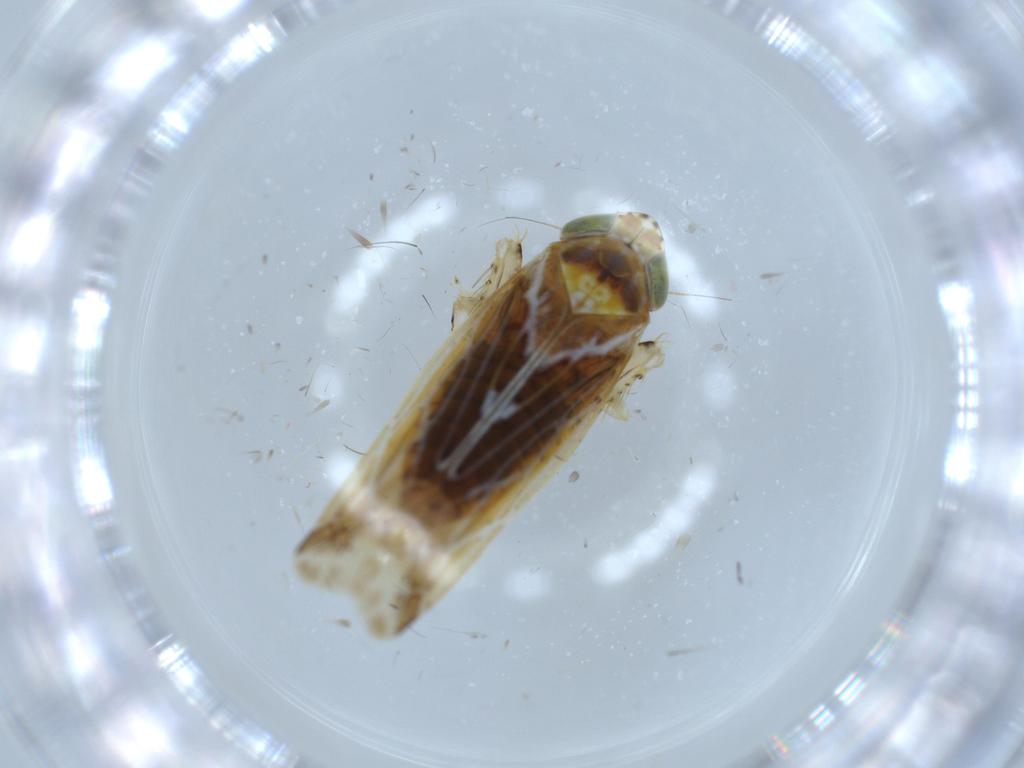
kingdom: Animalia
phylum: Arthropoda
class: Insecta
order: Hemiptera
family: Cicadellidae
